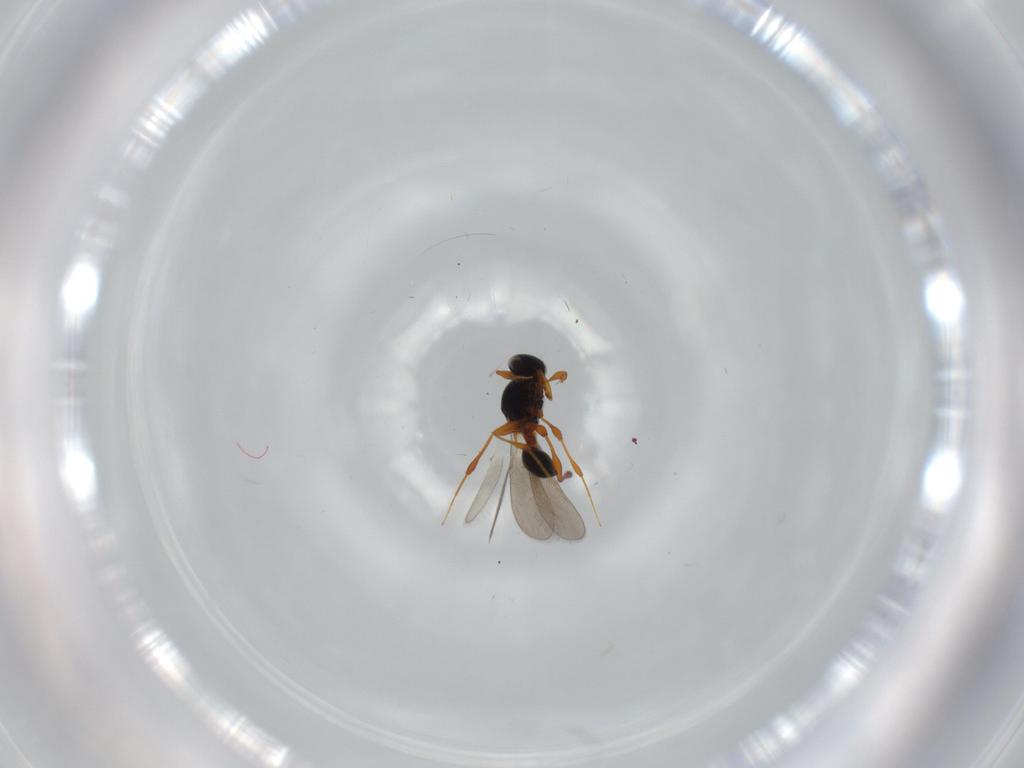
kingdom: Animalia
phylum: Arthropoda
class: Insecta
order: Hymenoptera
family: Platygastridae
